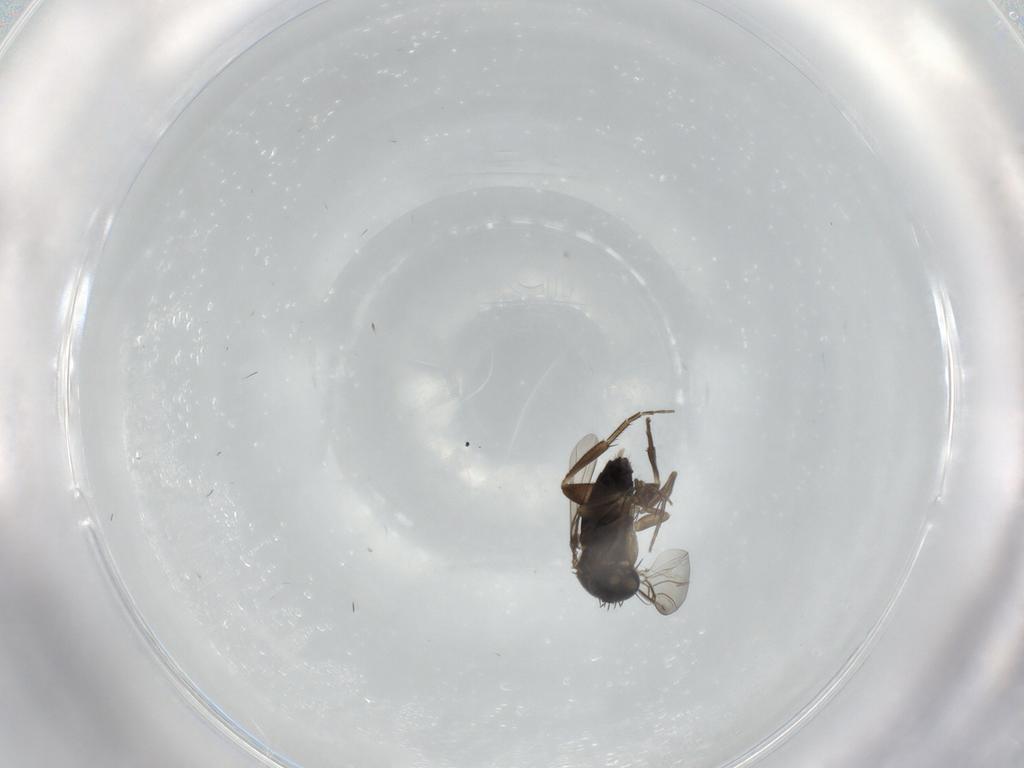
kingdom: Animalia
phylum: Arthropoda
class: Insecta
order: Diptera
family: Phoridae
